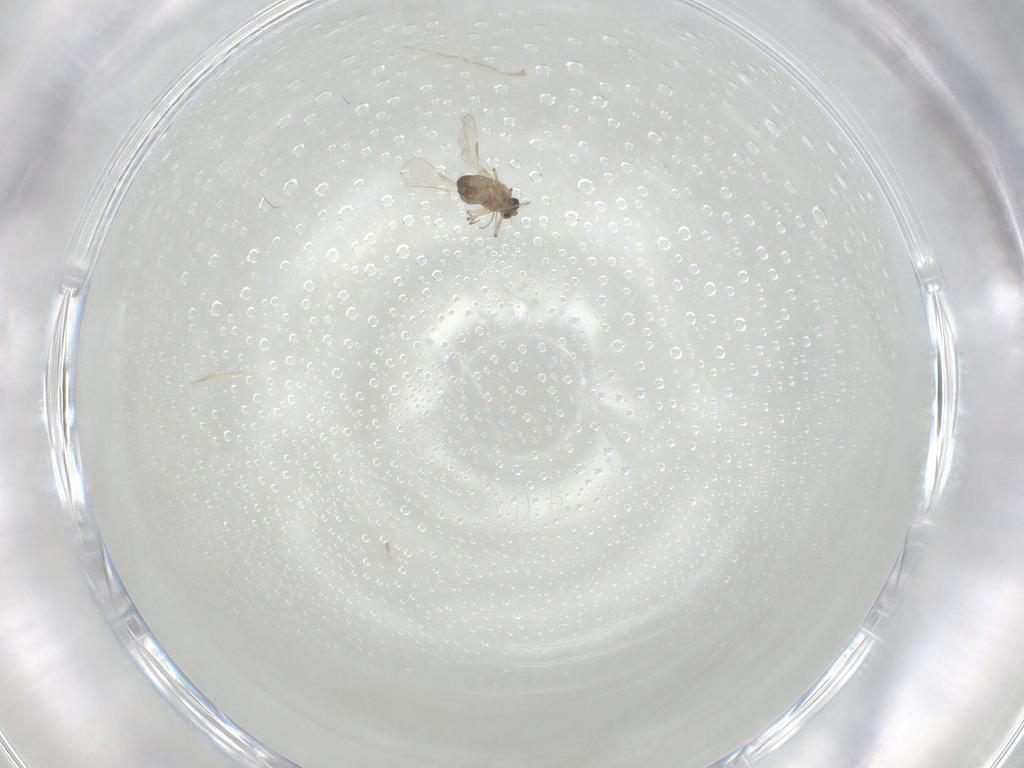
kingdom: Animalia
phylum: Arthropoda
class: Insecta
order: Diptera
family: Chironomidae
